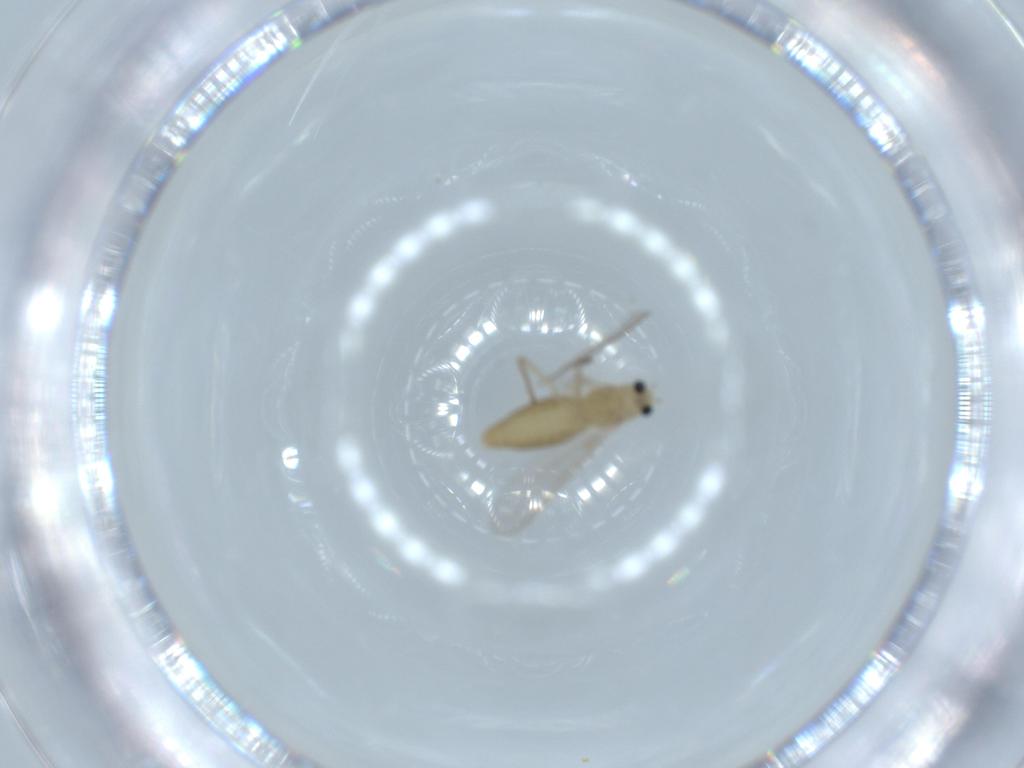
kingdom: Animalia
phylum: Arthropoda
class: Insecta
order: Diptera
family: Chironomidae
